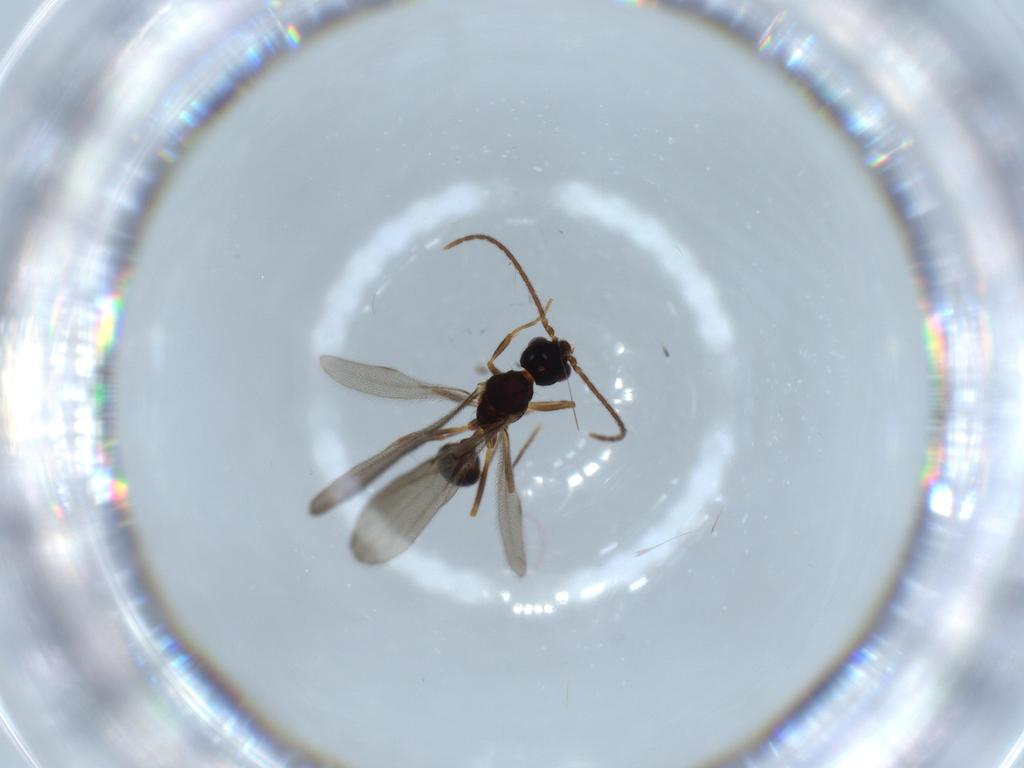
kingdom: Animalia
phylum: Arthropoda
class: Insecta
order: Hymenoptera
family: Formicidae
